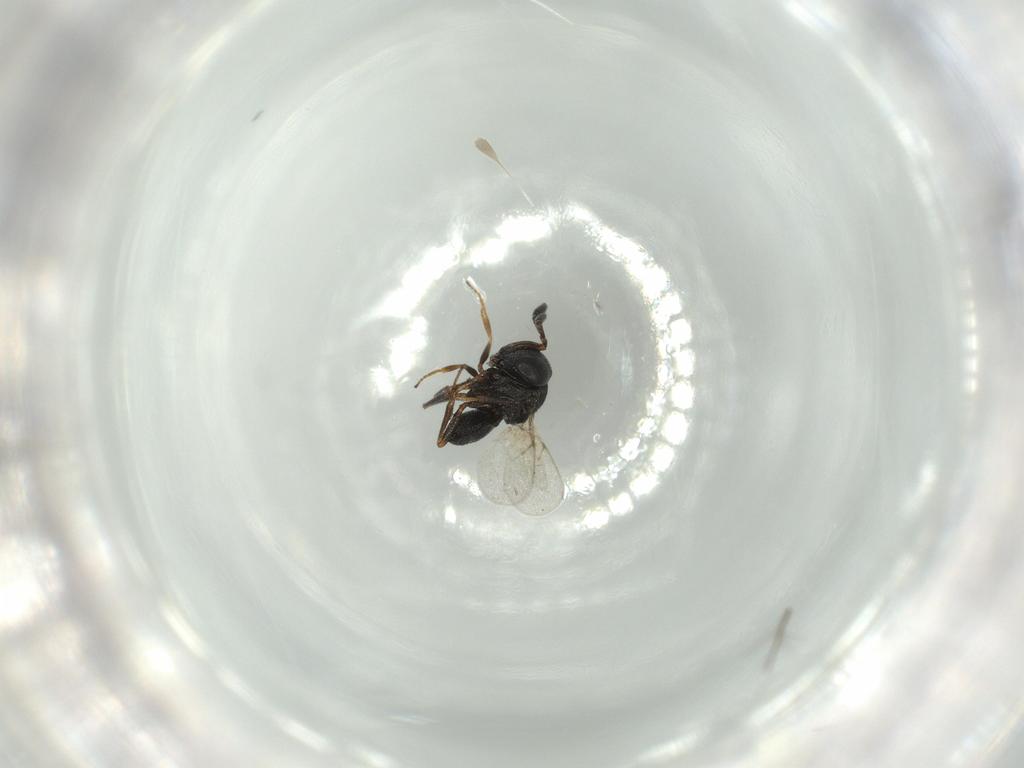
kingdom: Animalia
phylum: Arthropoda
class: Insecta
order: Hymenoptera
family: Scelionidae
